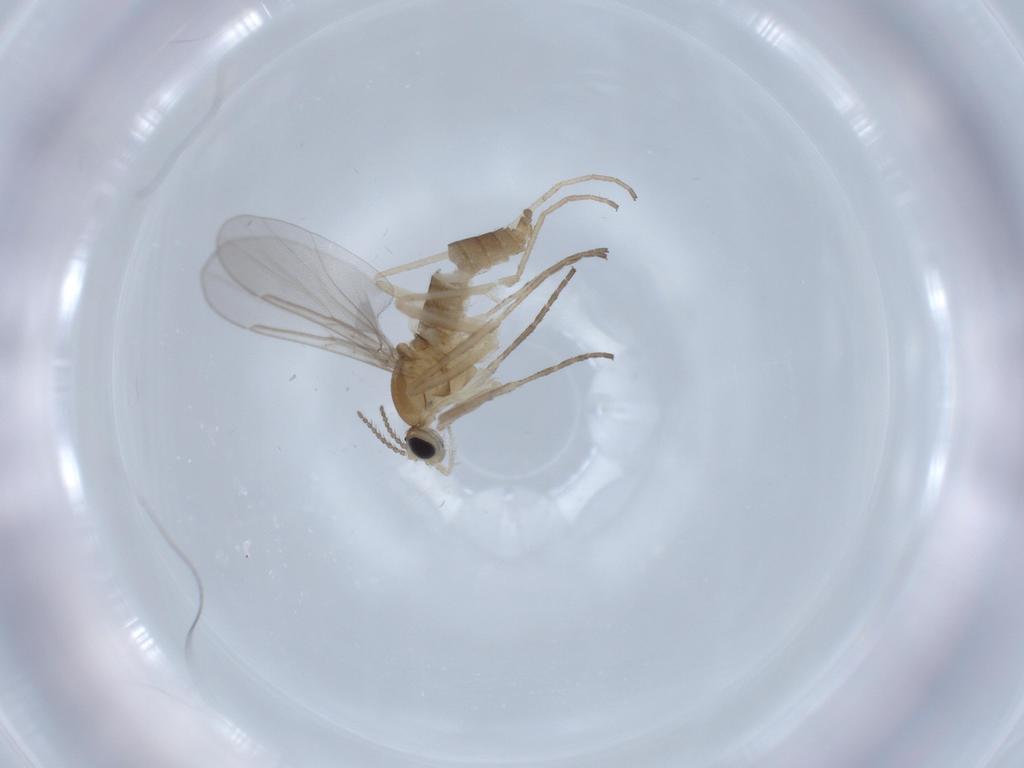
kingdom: Animalia
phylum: Arthropoda
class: Insecta
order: Diptera
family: Cecidomyiidae
